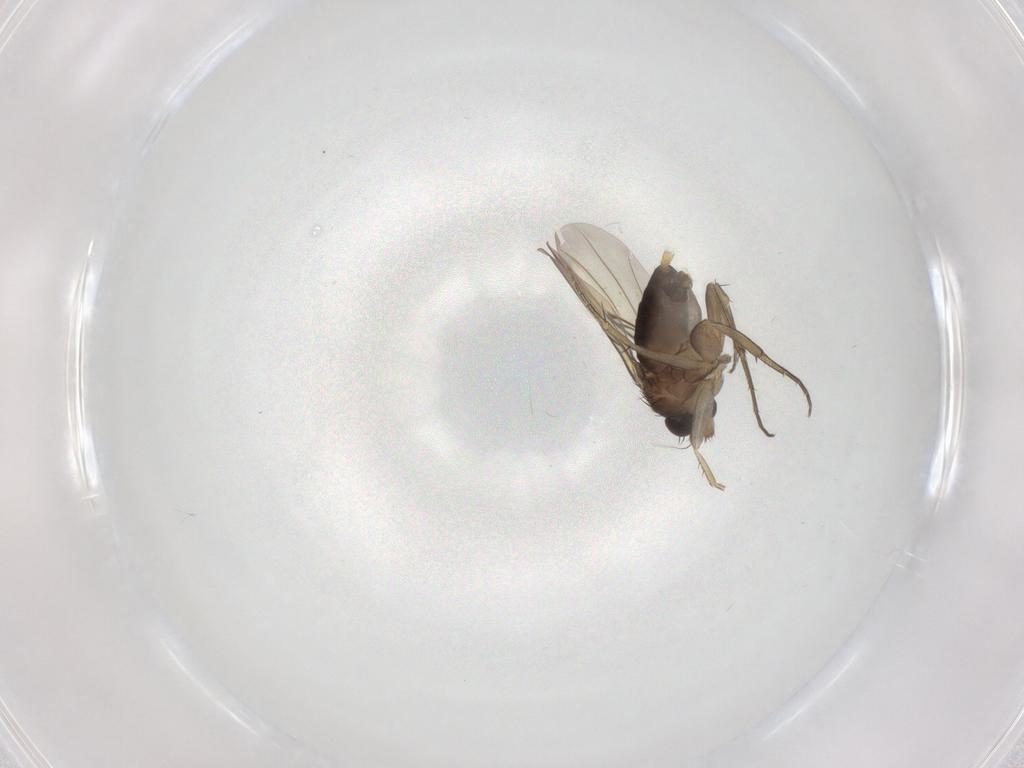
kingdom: Animalia
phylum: Arthropoda
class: Insecta
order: Diptera
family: Phoridae
